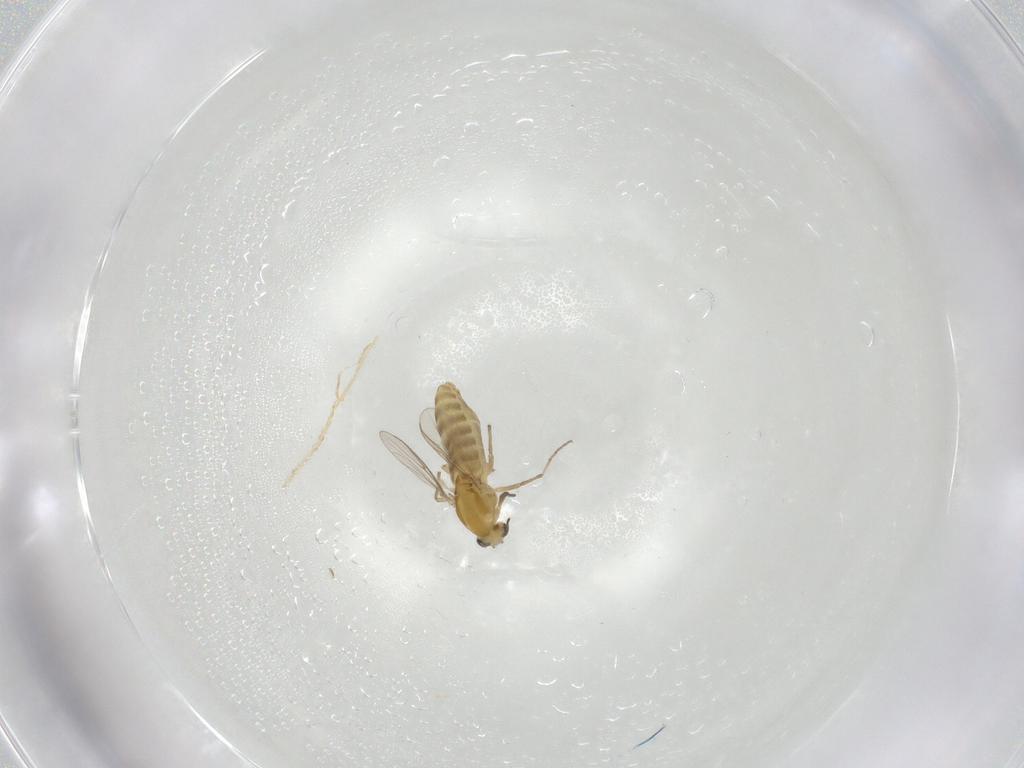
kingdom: Animalia
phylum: Arthropoda
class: Insecta
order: Diptera
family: Chironomidae
